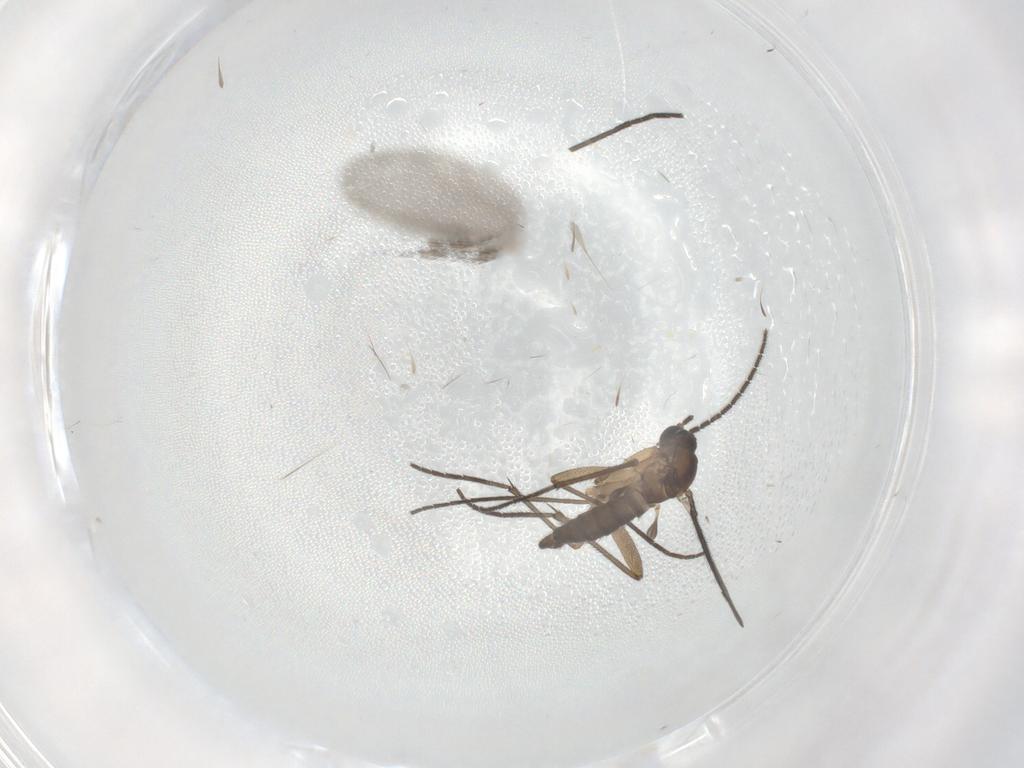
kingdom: Animalia
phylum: Arthropoda
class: Insecta
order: Diptera
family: Sciaridae
